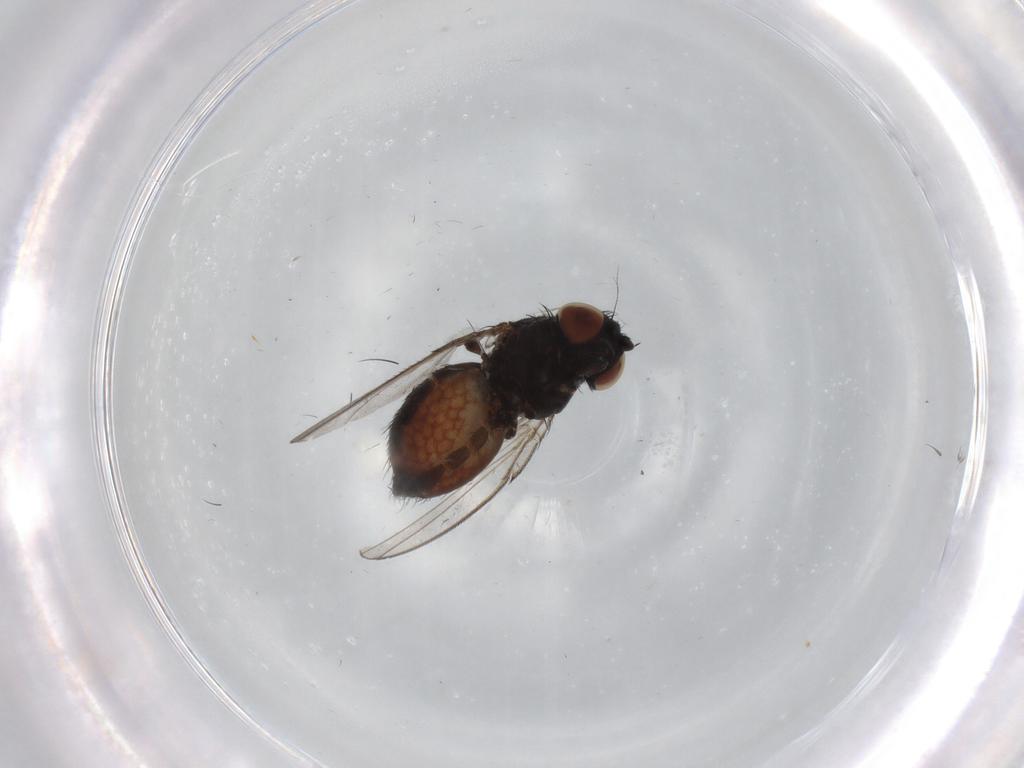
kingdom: Animalia
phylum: Arthropoda
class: Insecta
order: Diptera
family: Milichiidae
